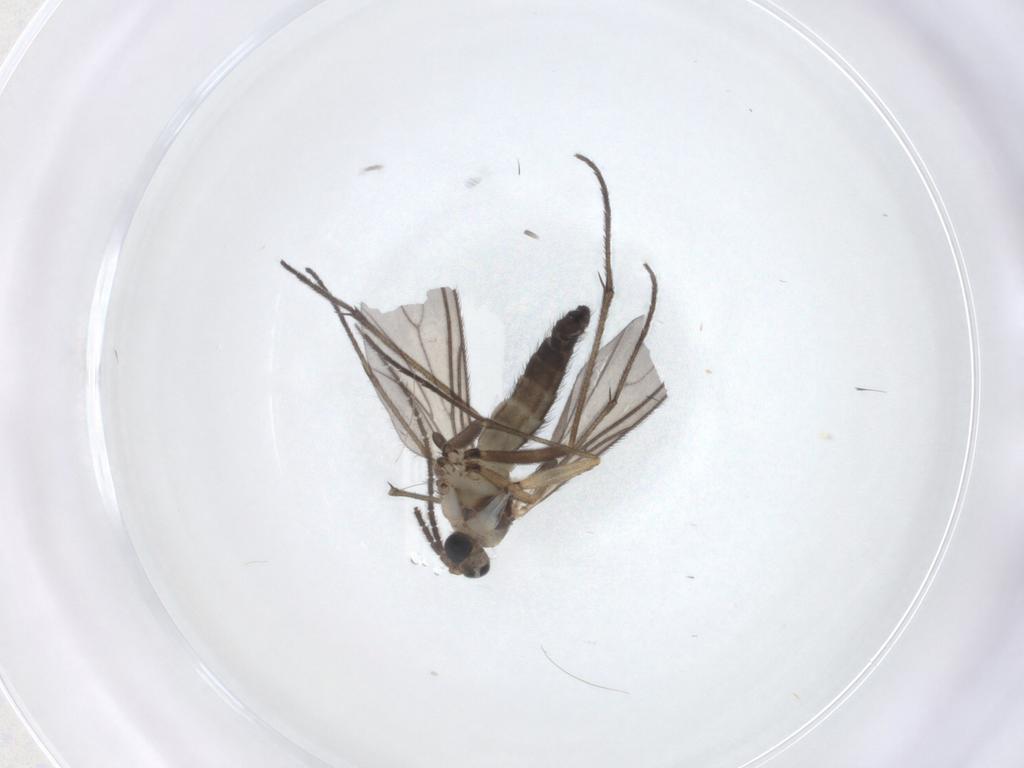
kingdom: Animalia
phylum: Arthropoda
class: Insecta
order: Diptera
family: Sciaridae
